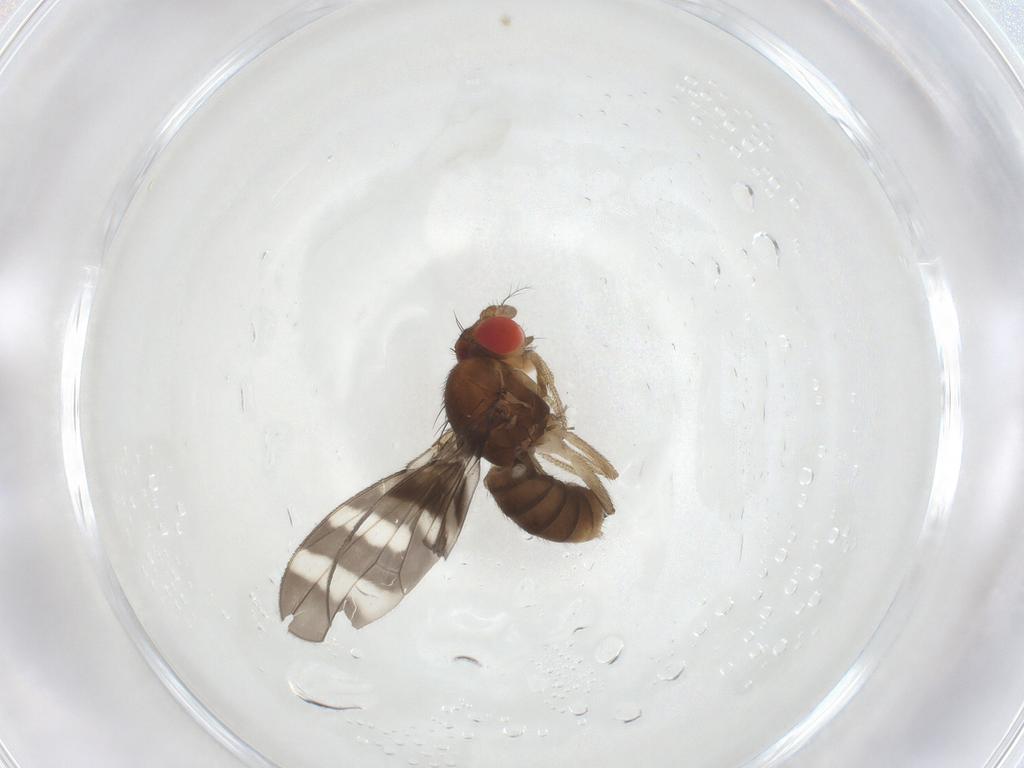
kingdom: Animalia
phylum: Arthropoda
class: Insecta
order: Diptera
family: Drosophilidae
